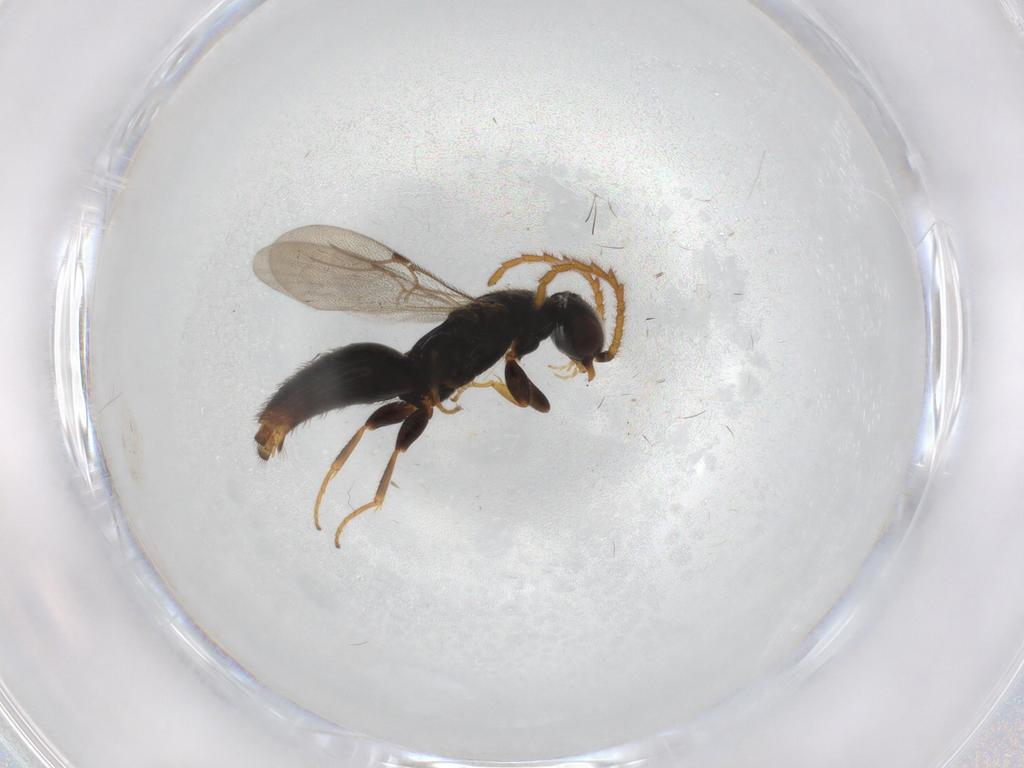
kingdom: Animalia
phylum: Arthropoda
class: Insecta
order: Hymenoptera
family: Bethylidae
